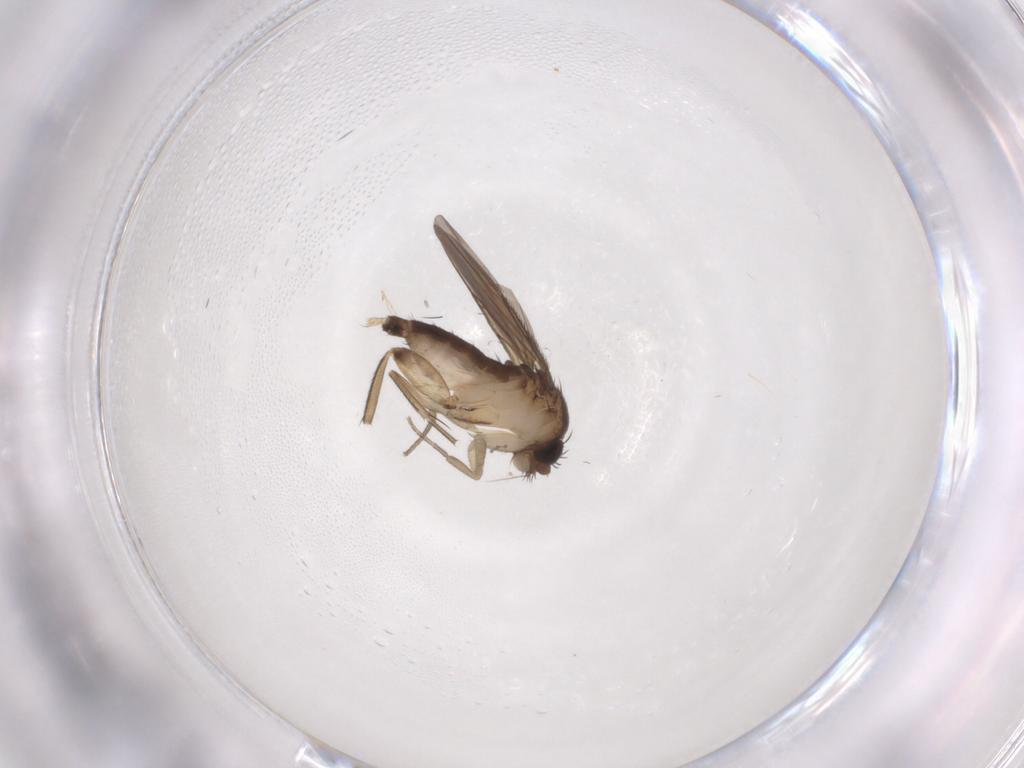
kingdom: Animalia
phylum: Arthropoda
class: Insecta
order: Diptera
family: Phoridae
